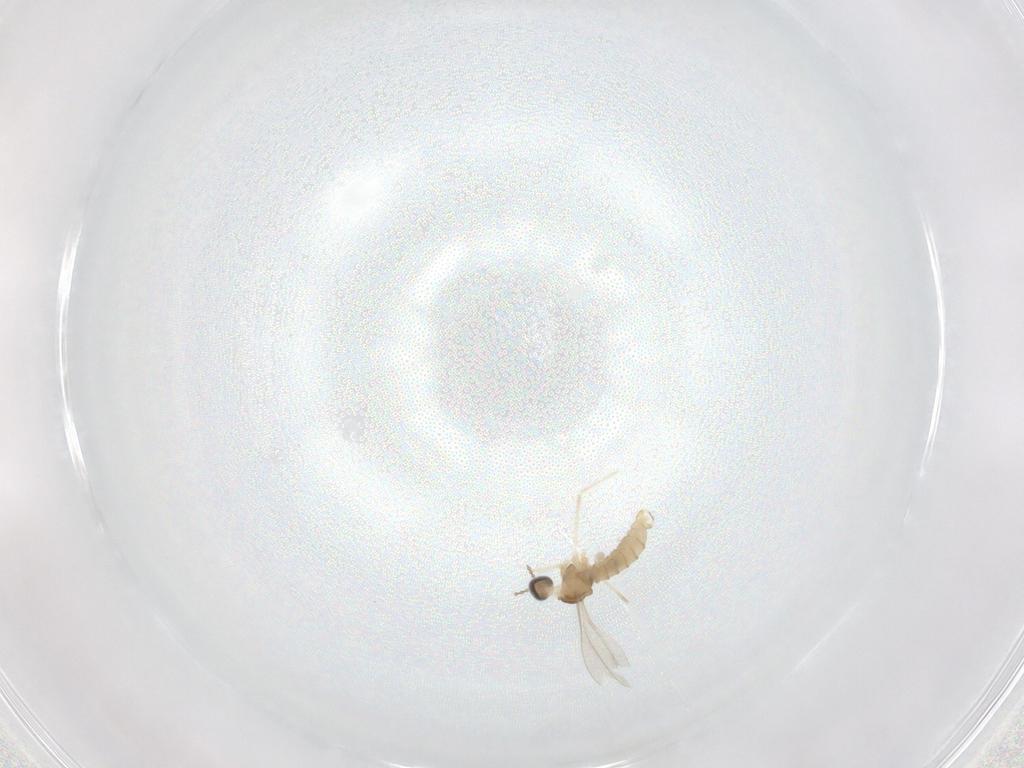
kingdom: Animalia
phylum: Arthropoda
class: Insecta
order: Diptera
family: Cecidomyiidae
